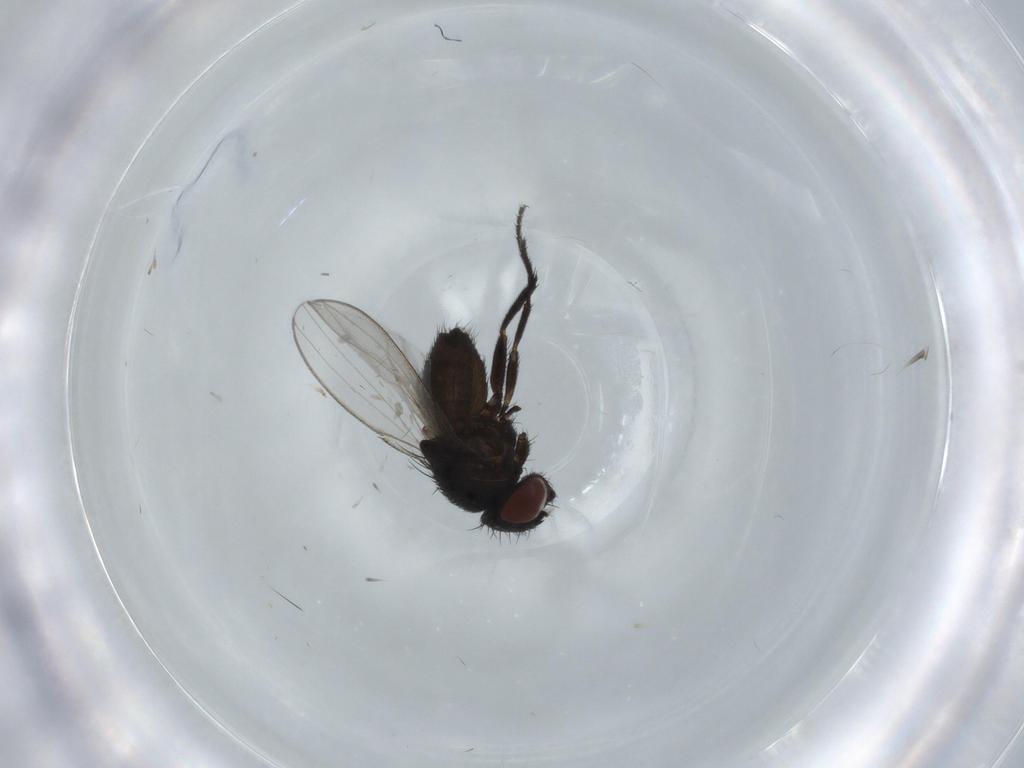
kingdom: Animalia
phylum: Arthropoda
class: Insecta
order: Diptera
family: Milichiidae
